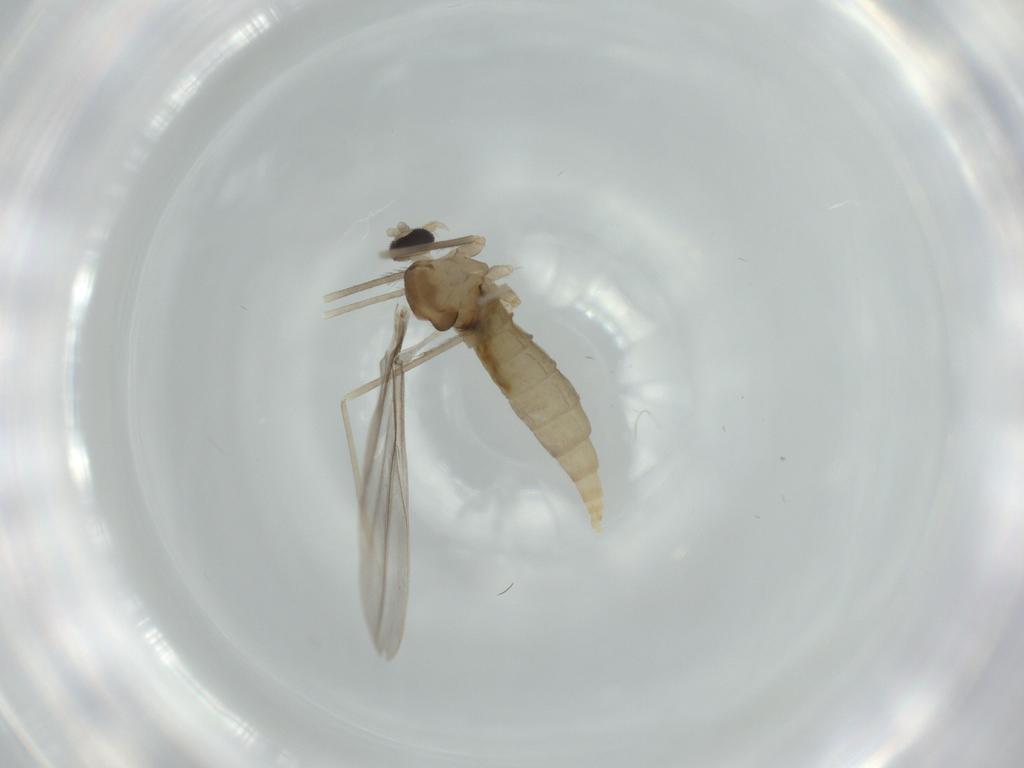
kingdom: Animalia
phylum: Arthropoda
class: Insecta
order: Diptera
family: Cecidomyiidae
